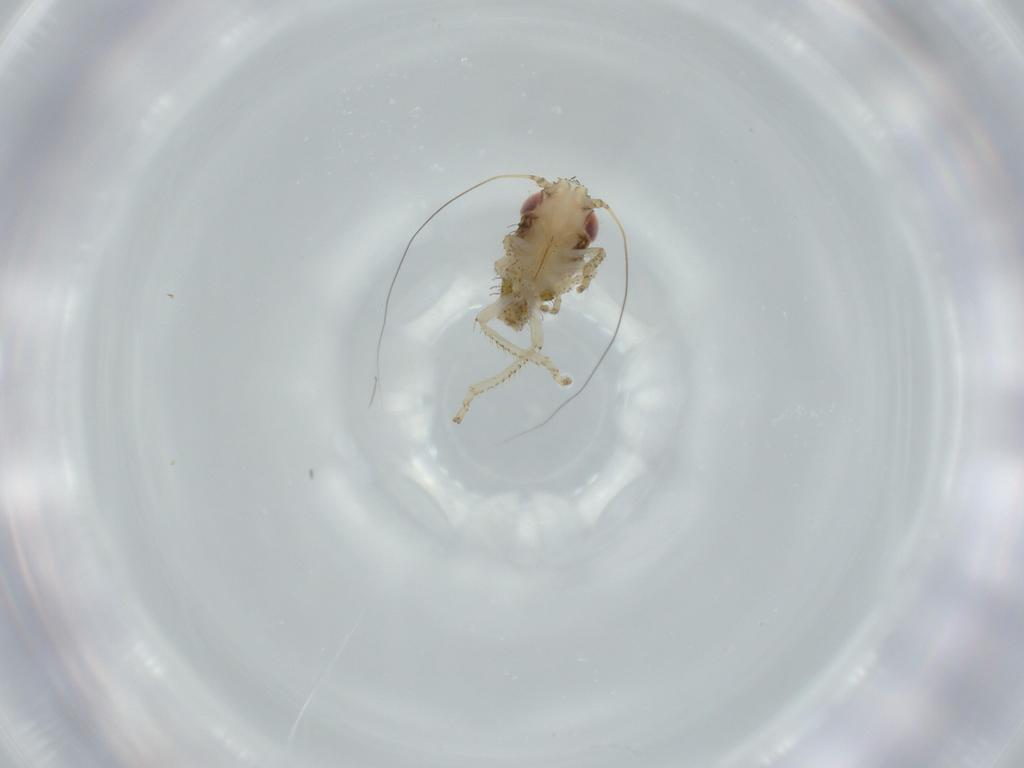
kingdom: Animalia
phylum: Arthropoda
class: Insecta
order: Hemiptera
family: Cicadellidae
